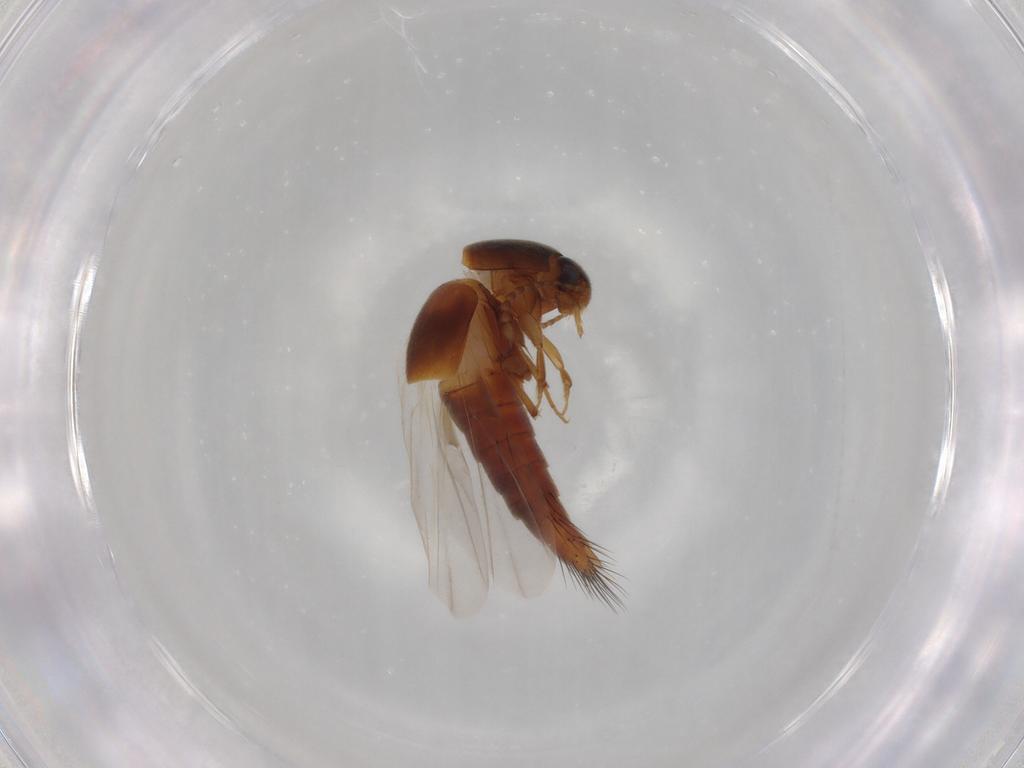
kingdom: Animalia
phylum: Arthropoda
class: Insecta
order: Coleoptera
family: Staphylinidae
